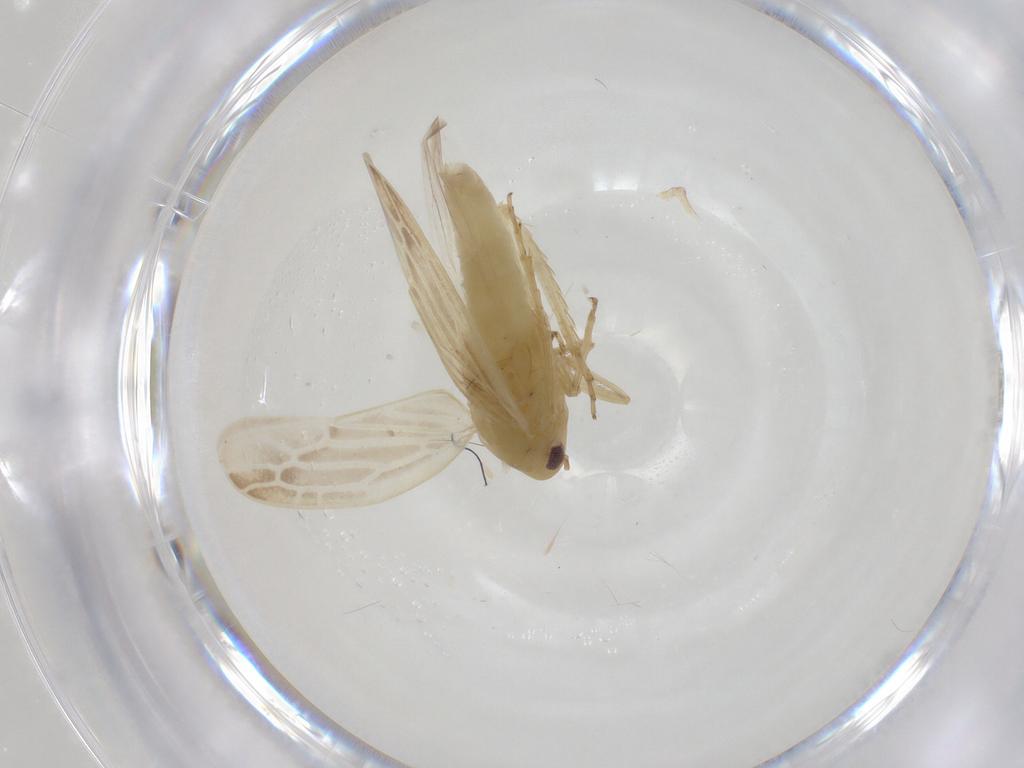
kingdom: Animalia
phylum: Arthropoda
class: Insecta
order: Hemiptera
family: Cicadellidae
